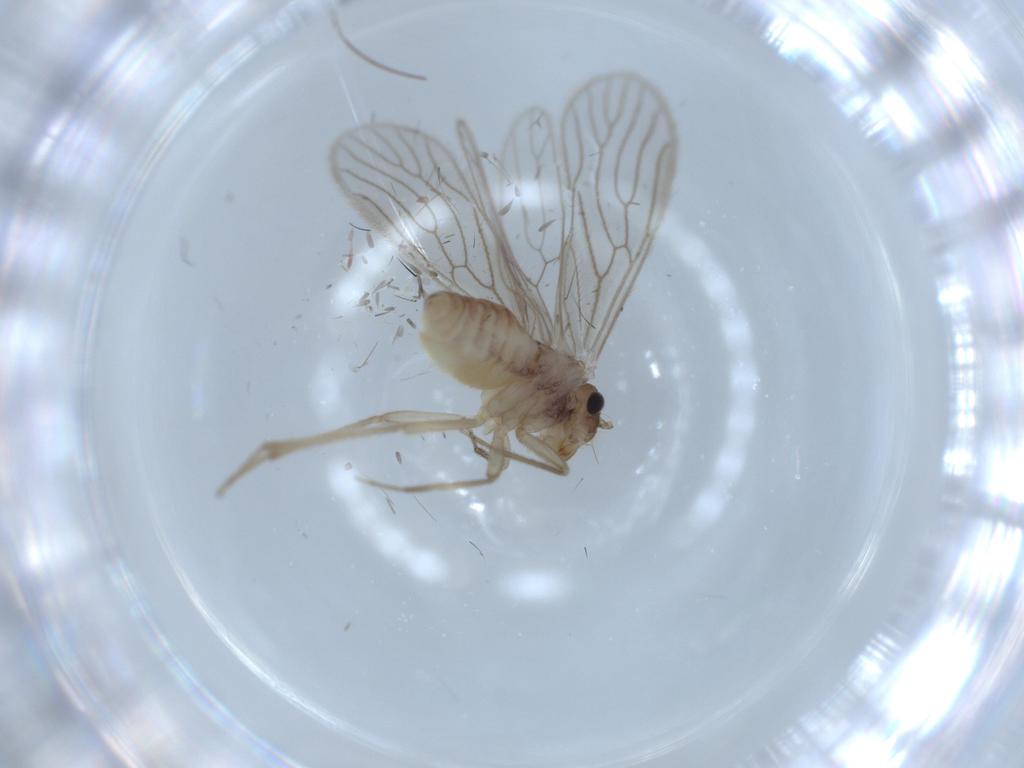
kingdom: Animalia
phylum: Arthropoda
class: Insecta
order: Psocodea
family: Cladiopsocidae
